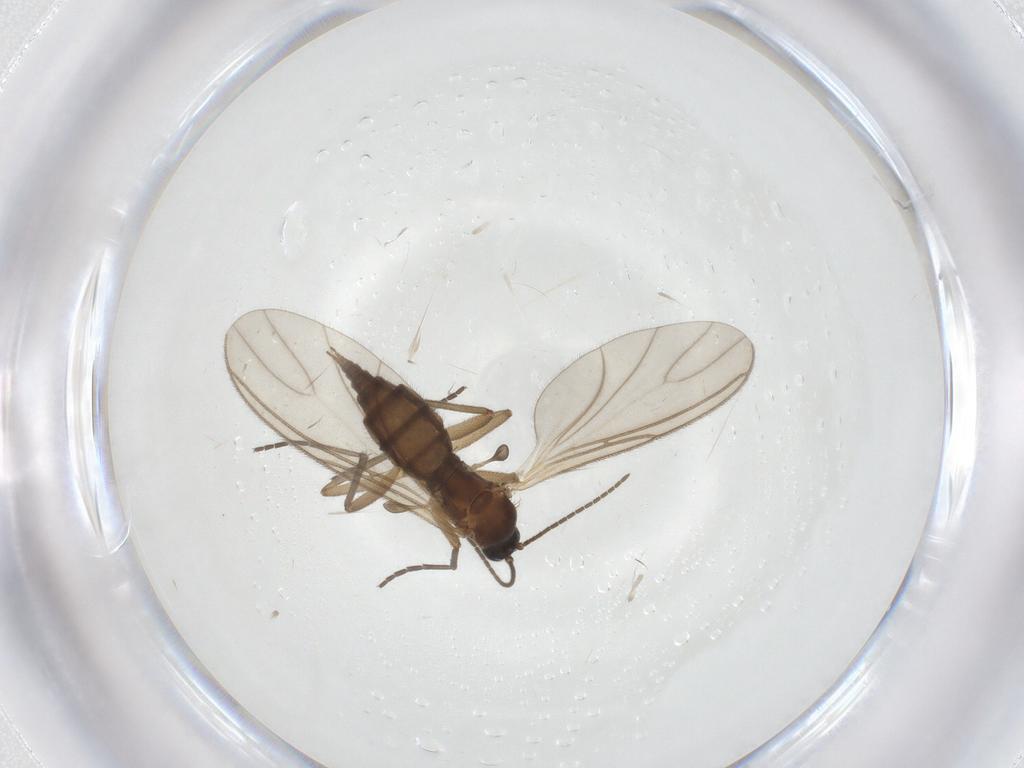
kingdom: Animalia
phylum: Arthropoda
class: Insecta
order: Diptera
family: Sciaridae
